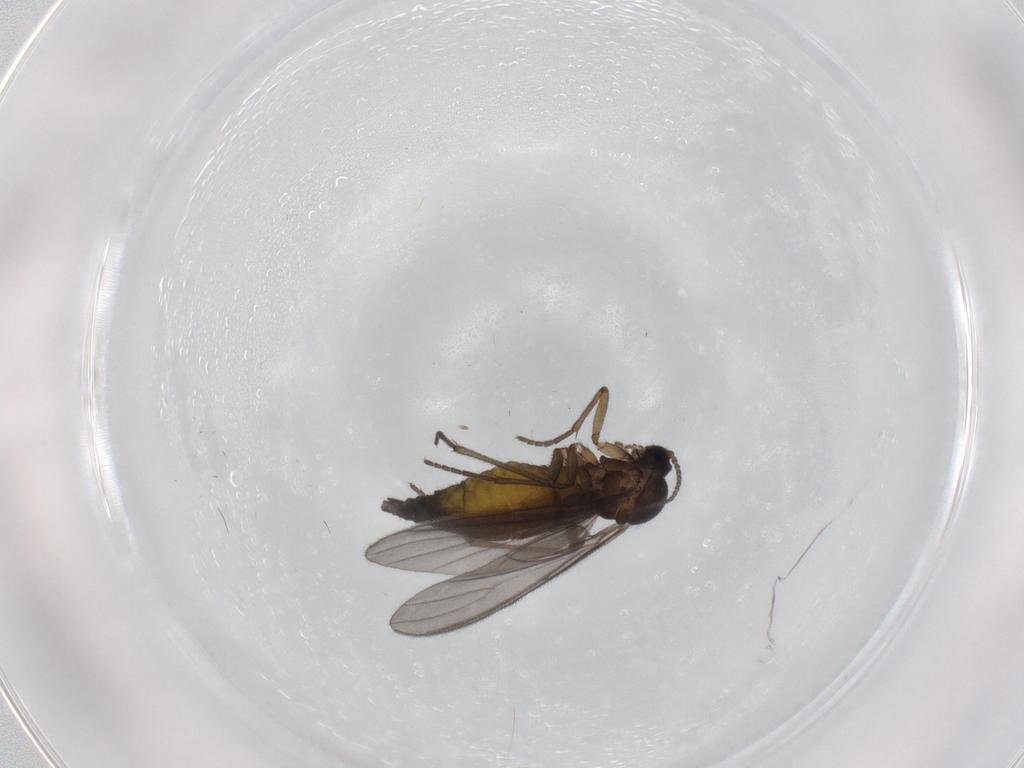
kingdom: Animalia
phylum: Arthropoda
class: Insecta
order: Diptera
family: Sciaridae
